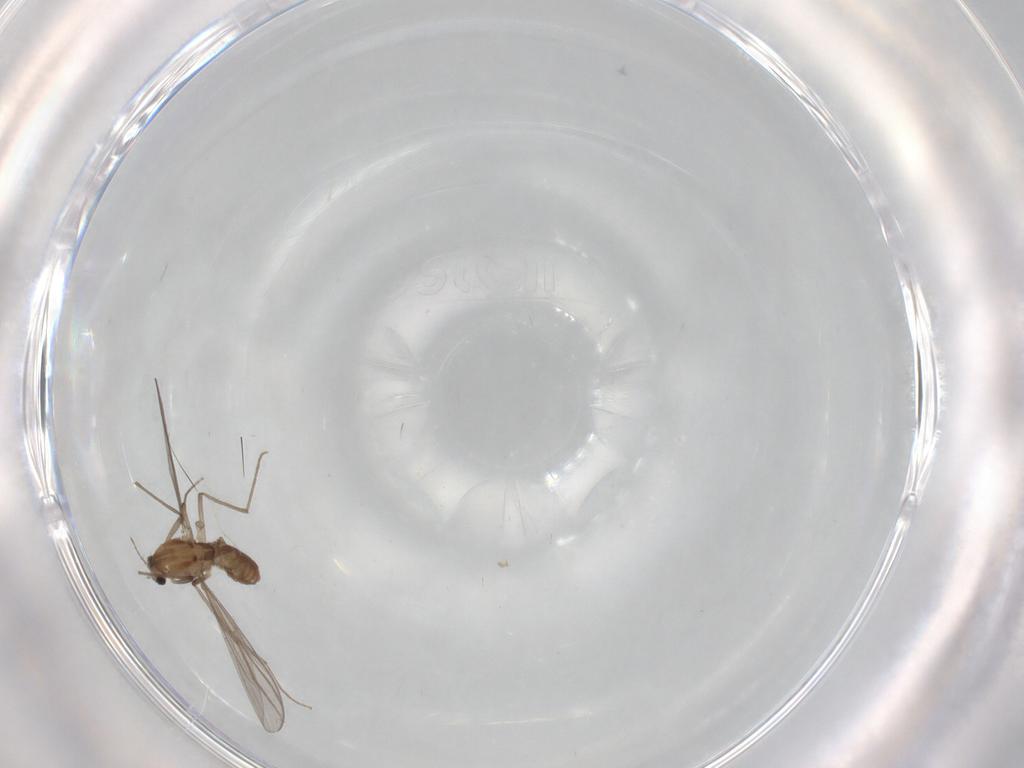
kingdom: Animalia
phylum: Arthropoda
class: Insecta
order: Diptera
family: Chironomidae
